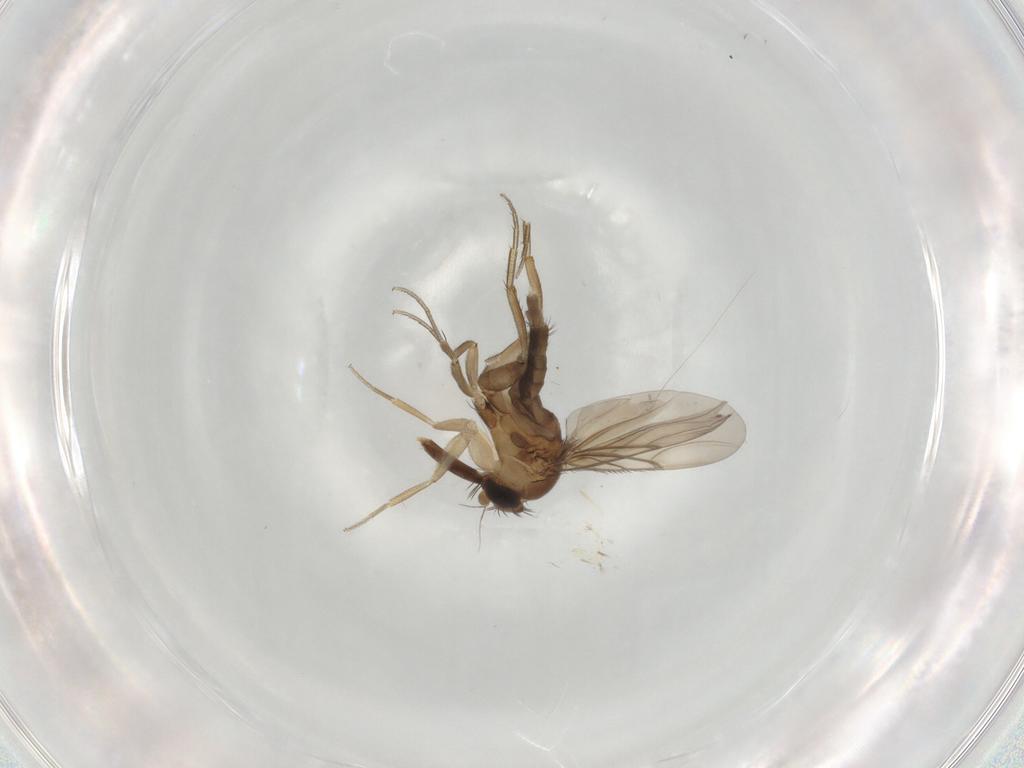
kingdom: Animalia
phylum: Arthropoda
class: Insecta
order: Diptera
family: Phoridae
